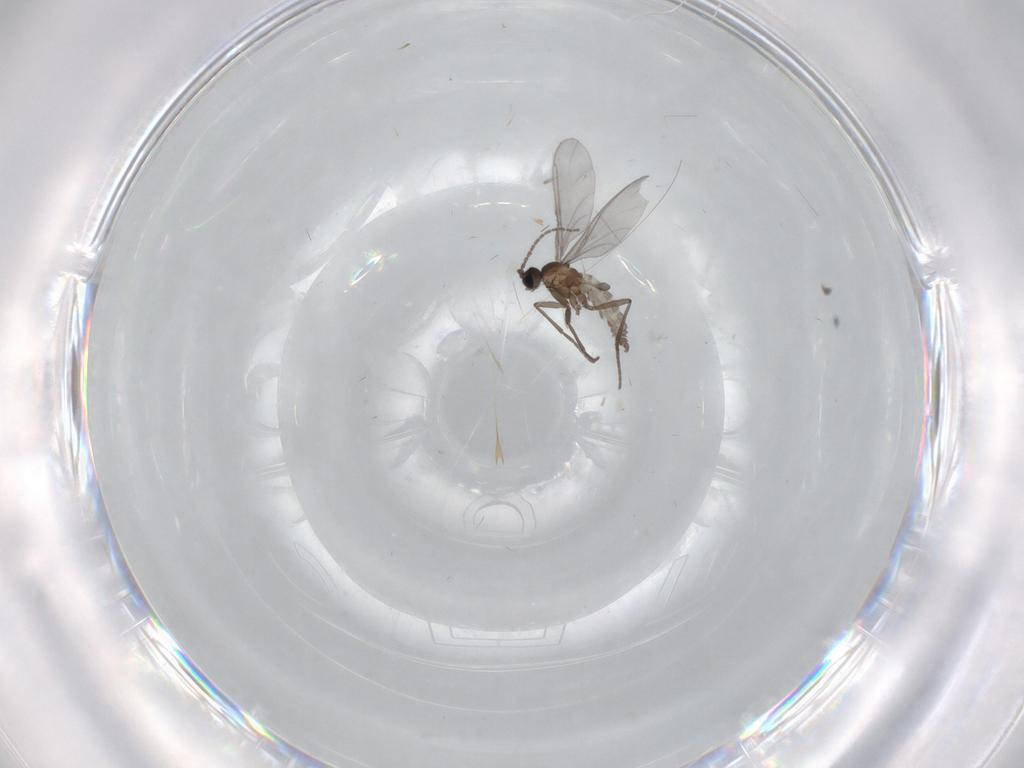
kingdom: Animalia
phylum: Arthropoda
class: Insecta
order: Diptera
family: Sciaridae
